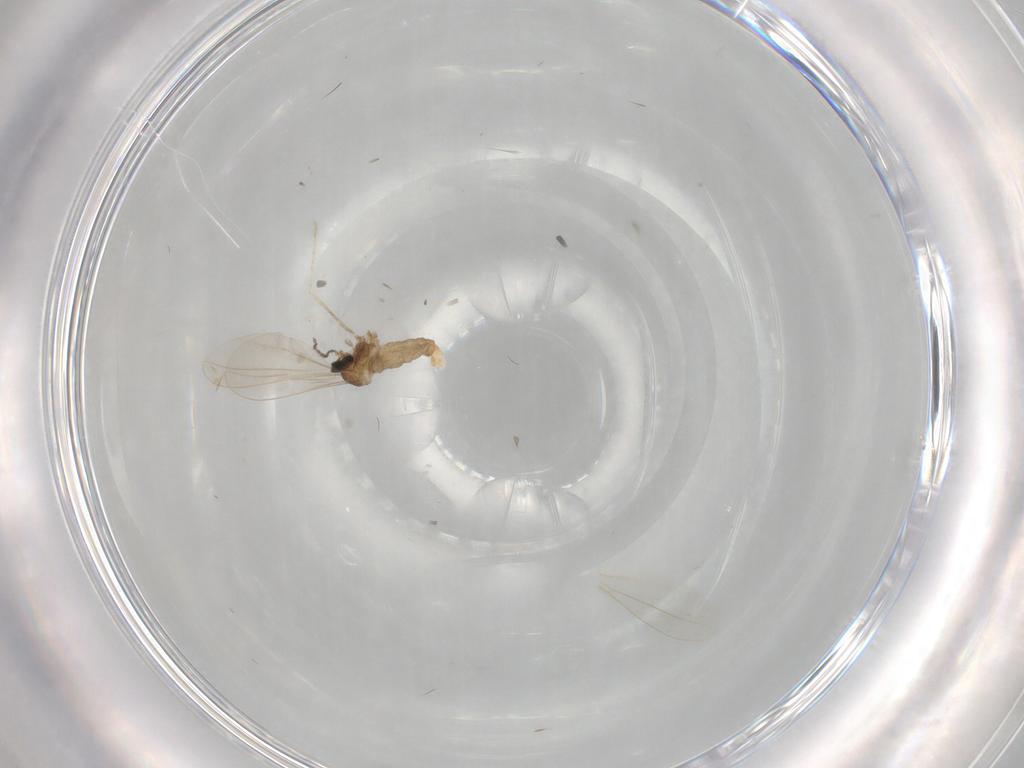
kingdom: Animalia
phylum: Arthropoda
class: Insecta
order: Diptera
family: Cecidomyiidae
